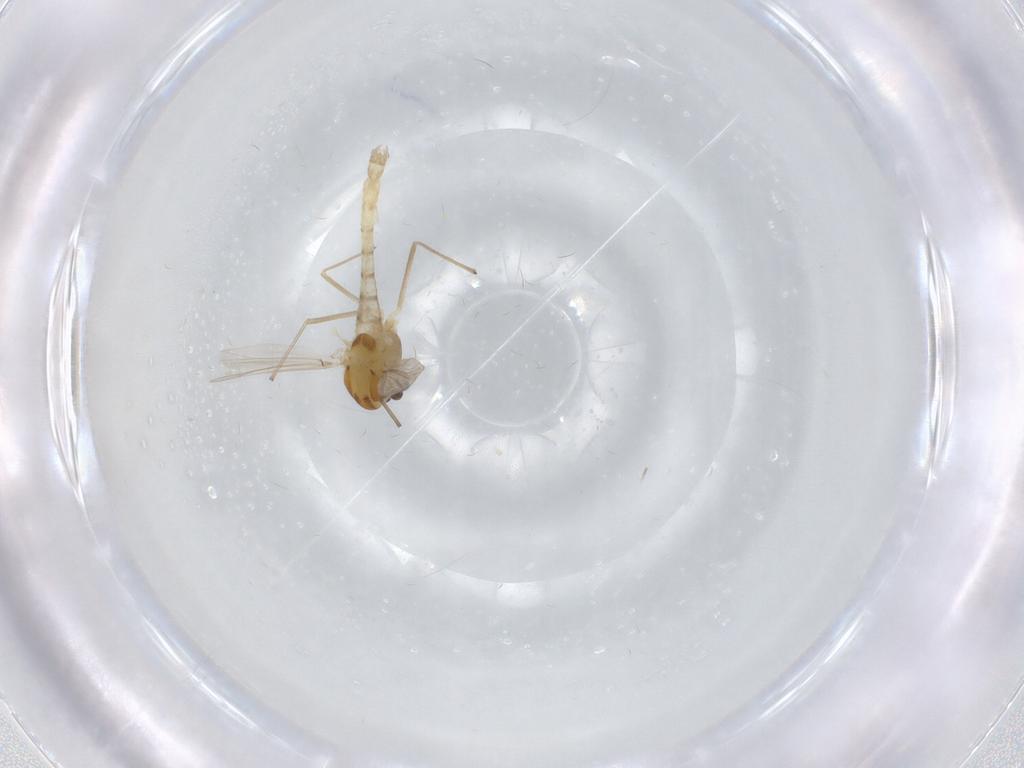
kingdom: Animalia
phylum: Arthropoda
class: Insecta
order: Diptera
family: Chironomidae
